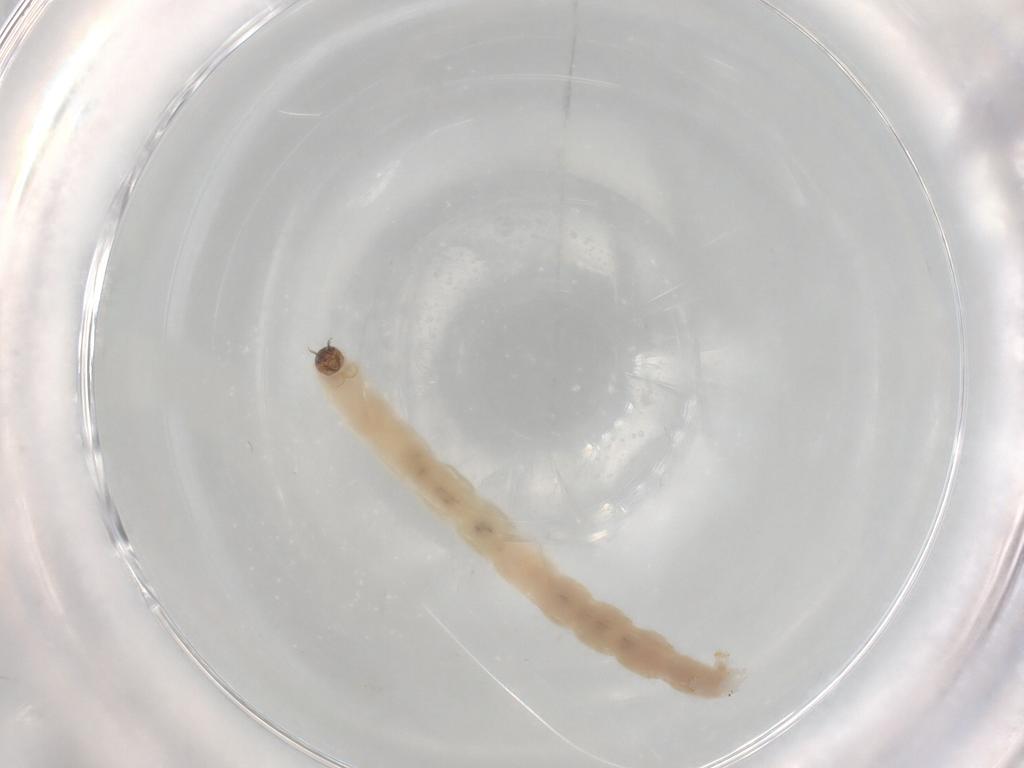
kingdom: Animalia
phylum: Arthropoda
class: Insecta
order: Diptera
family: Chironomidae
